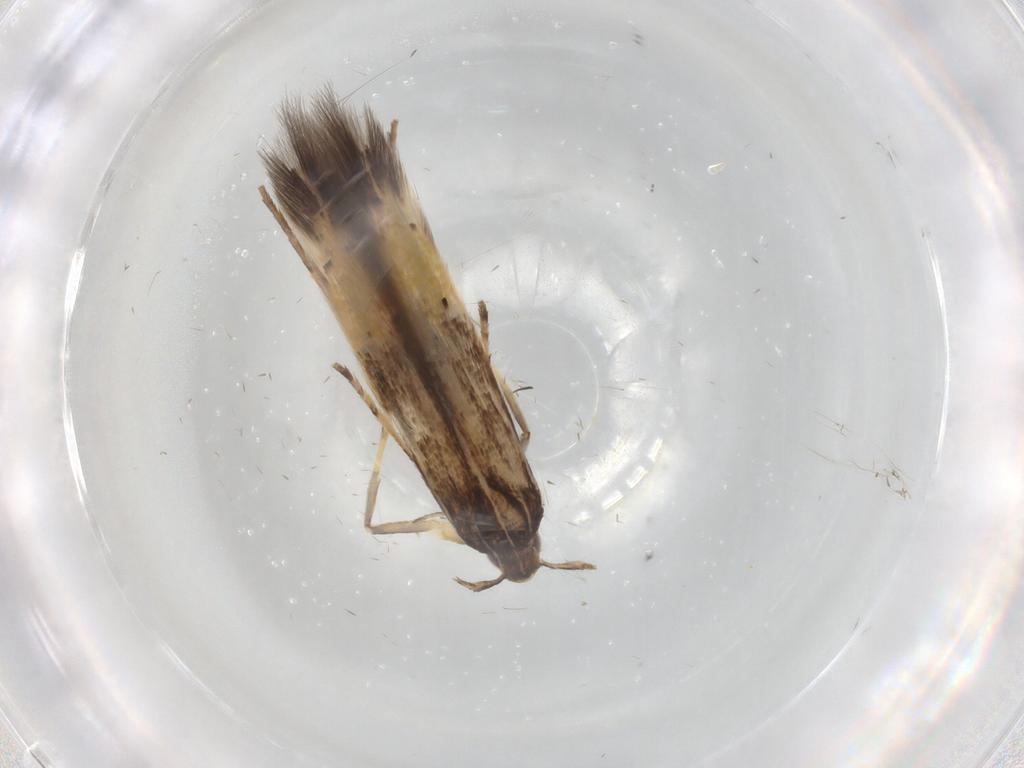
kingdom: Animalia
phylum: Arthropoda
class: Insecta
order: Lepidoptera
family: Cosmopterigidae
